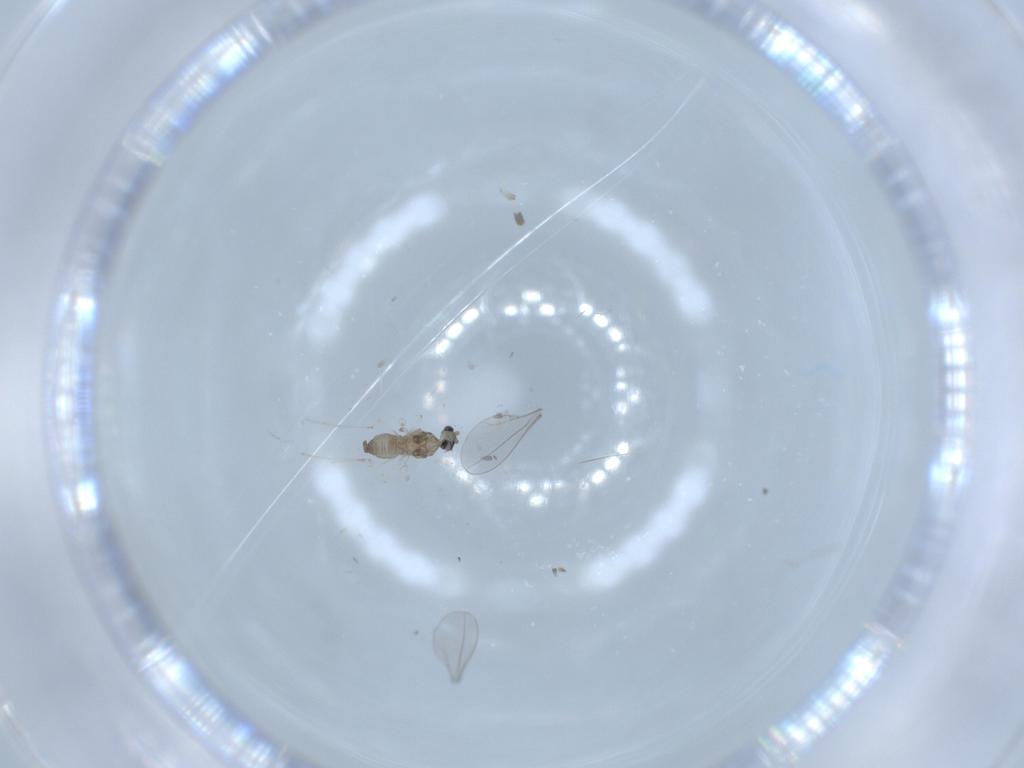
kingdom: Animalia
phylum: Arthropoda
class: Insecta
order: Diptera
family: Cecidomyiidae
